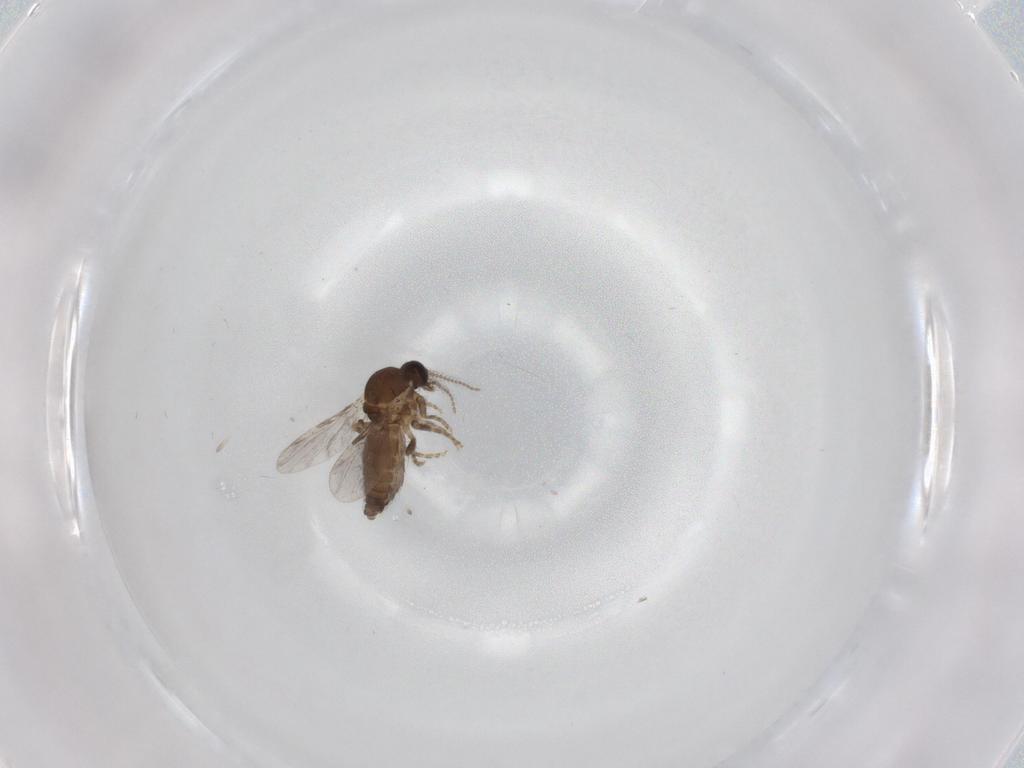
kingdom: Animalia
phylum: Arthropoda
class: Insecta
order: Diptera
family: Ceratopogonidae
